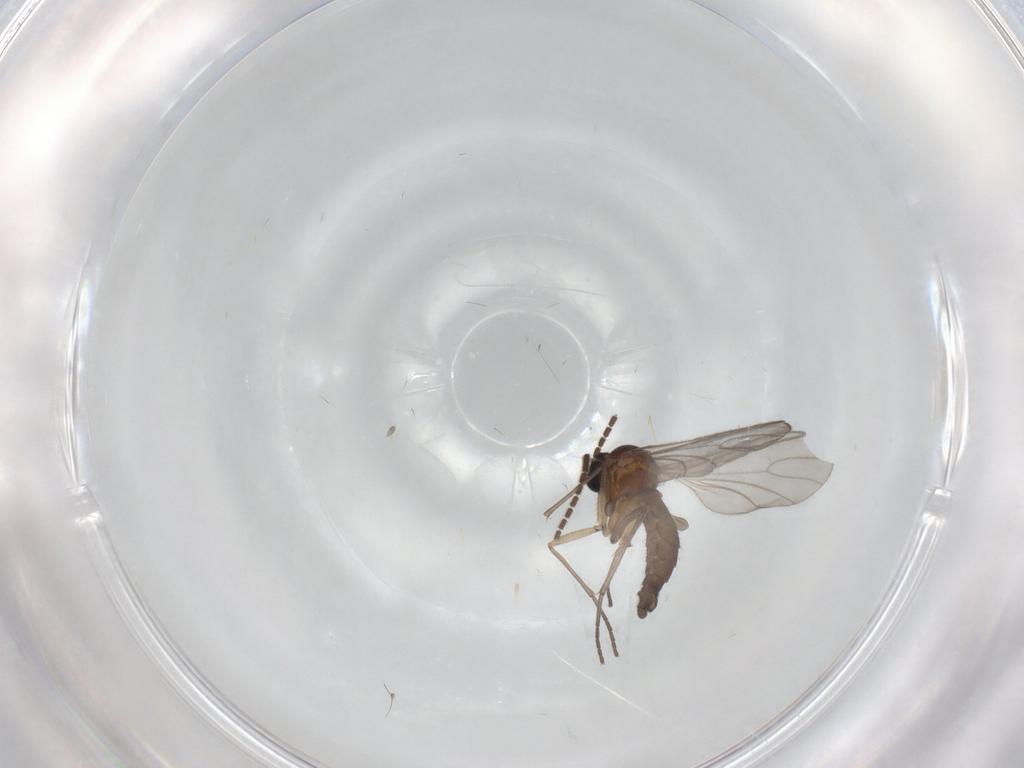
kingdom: Animalia
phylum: Arthropoda
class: Insecta
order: Diptera
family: Sciaridae
